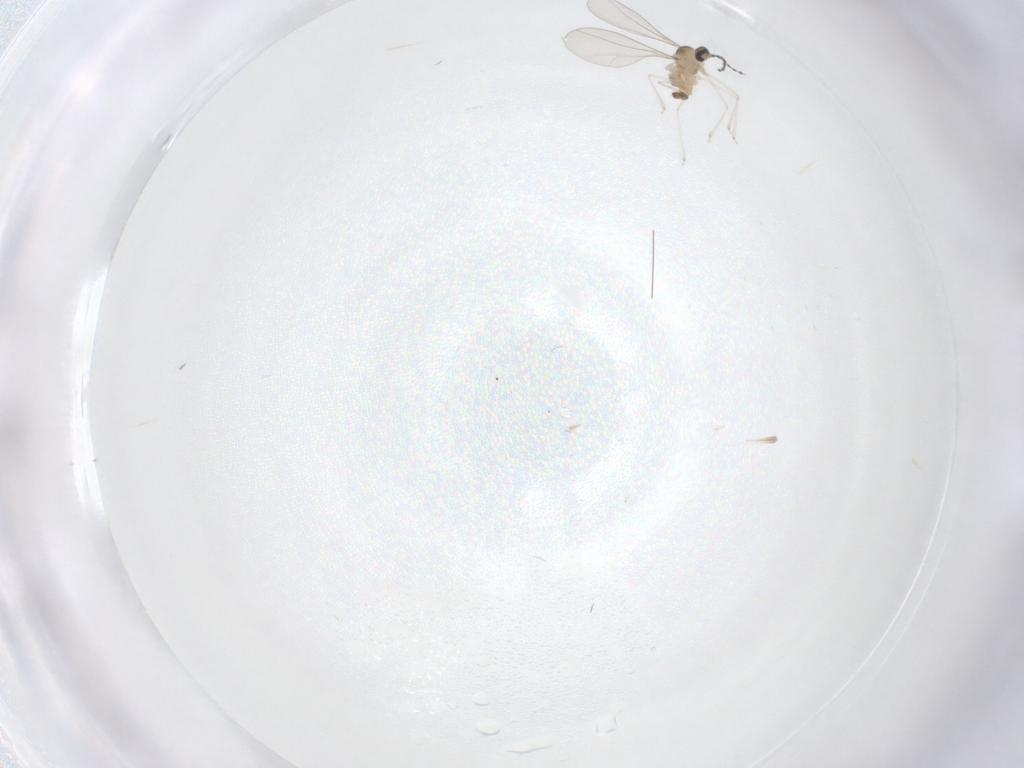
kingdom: Animalia
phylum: Arthropoda
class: Insecta
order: Diptera
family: Cecidomyiidae
